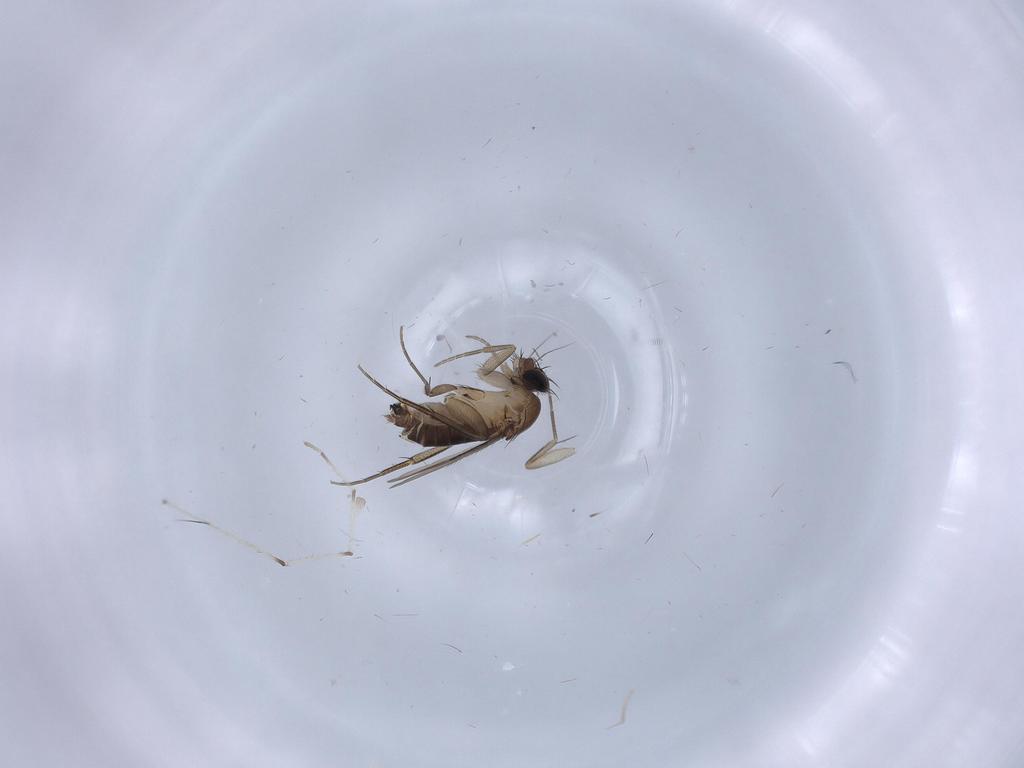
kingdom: Animalia
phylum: Arthropoda
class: Insecta
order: Diptera
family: Phoridae
